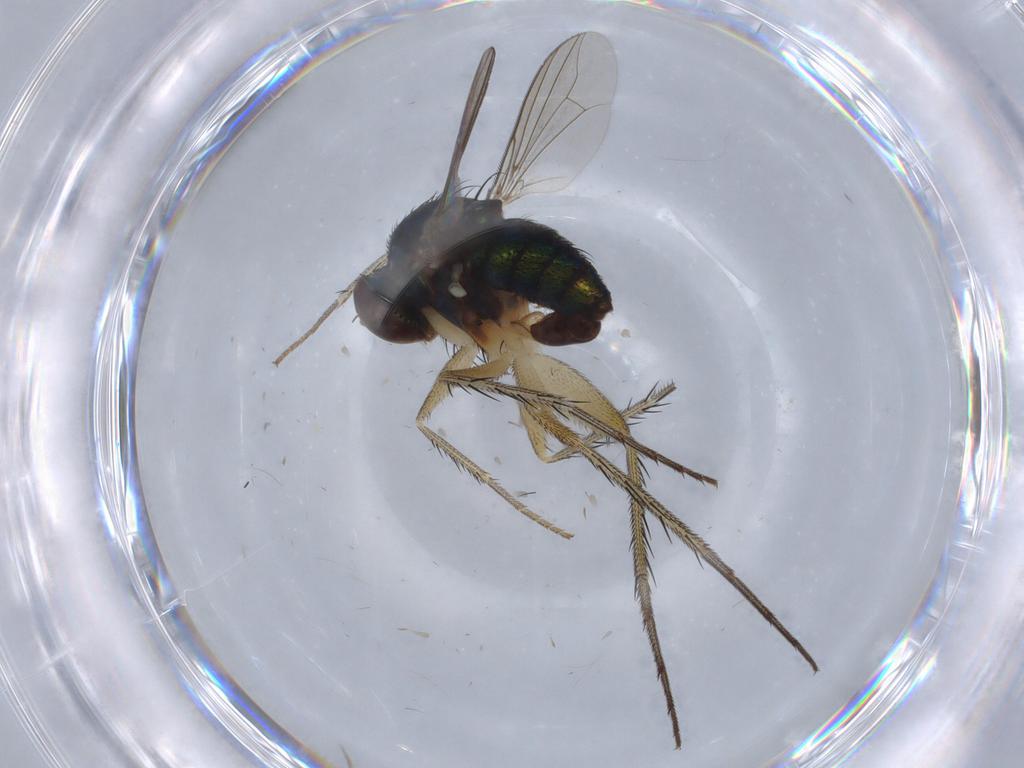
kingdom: Animalia
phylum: Arthropoda
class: Insecta
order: Diptera
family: Dolichopodidae
